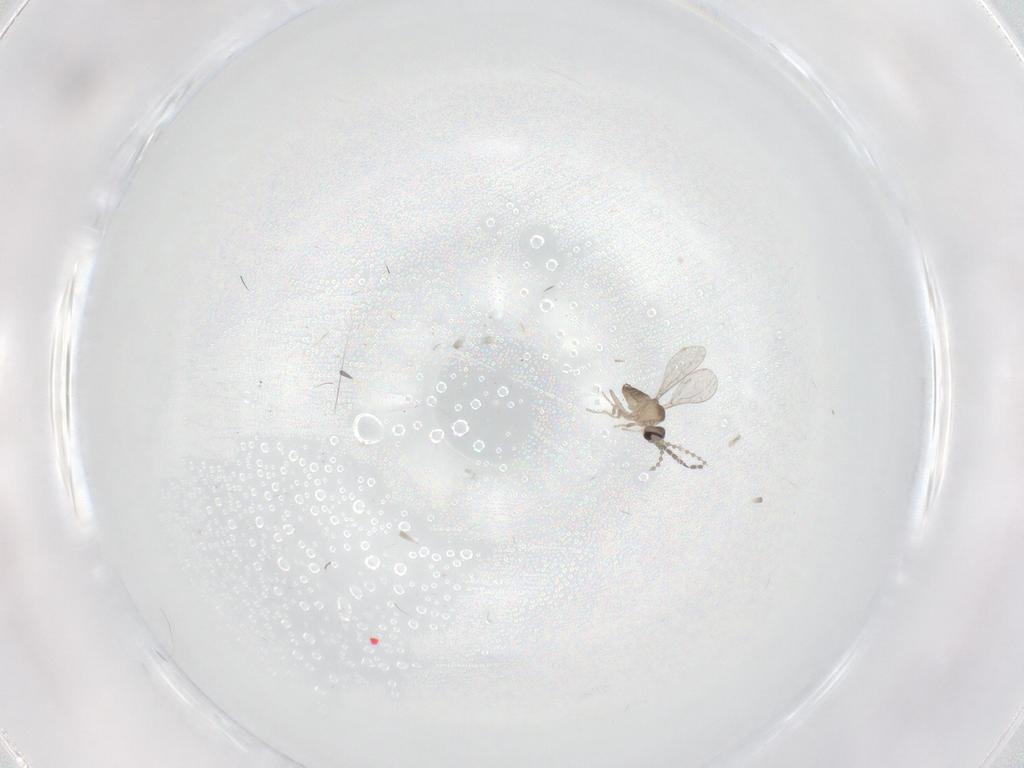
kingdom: Animalia
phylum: Arthropoda
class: Insecta
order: Diptera
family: Cecidomyiidae
